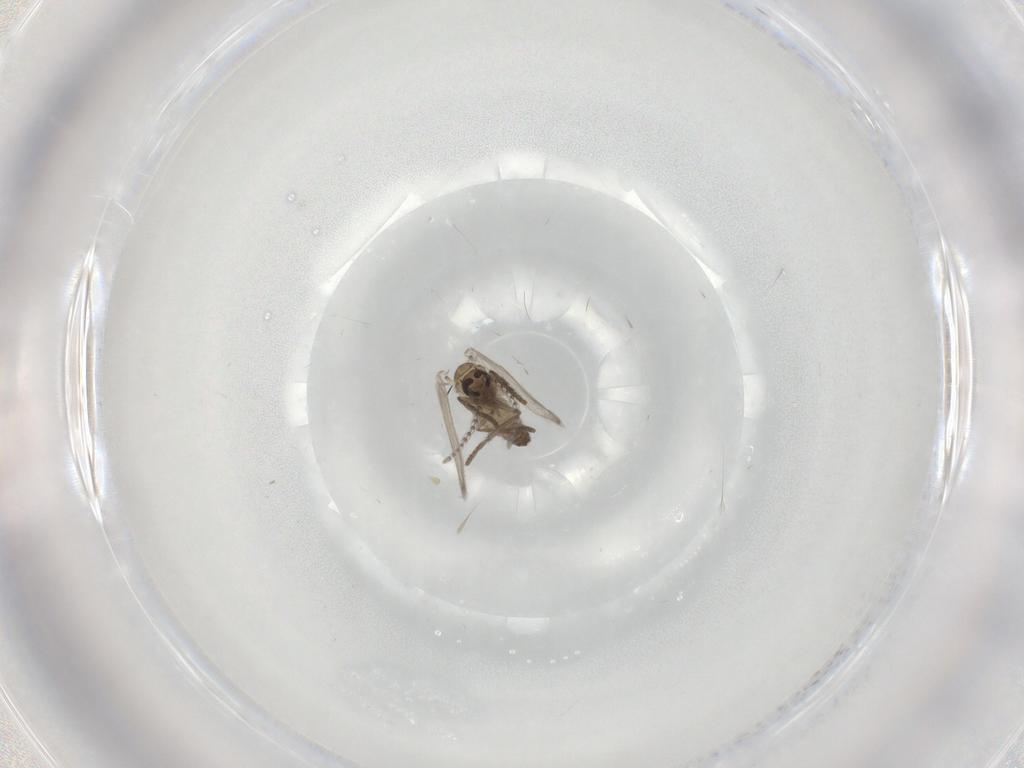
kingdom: Animalia
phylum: Arthropoda
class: Insecta
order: Diptera
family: Psychodidae
